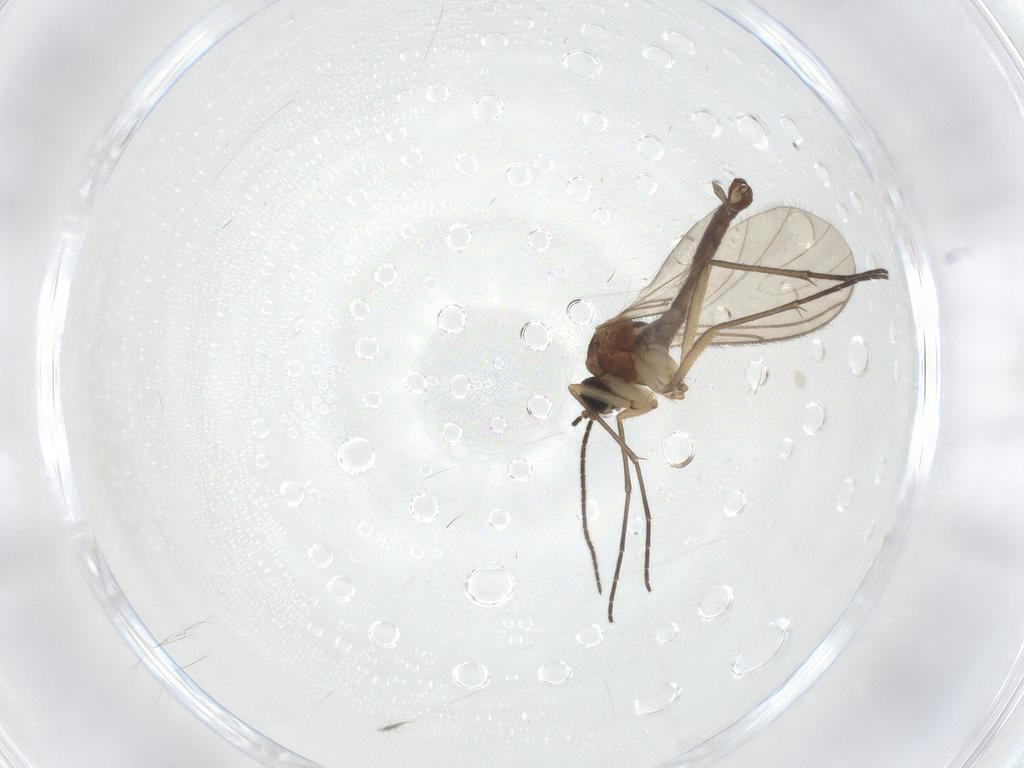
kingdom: Animalia
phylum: Arthropoda
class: Insecta
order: Diptera
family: Sciaridae
